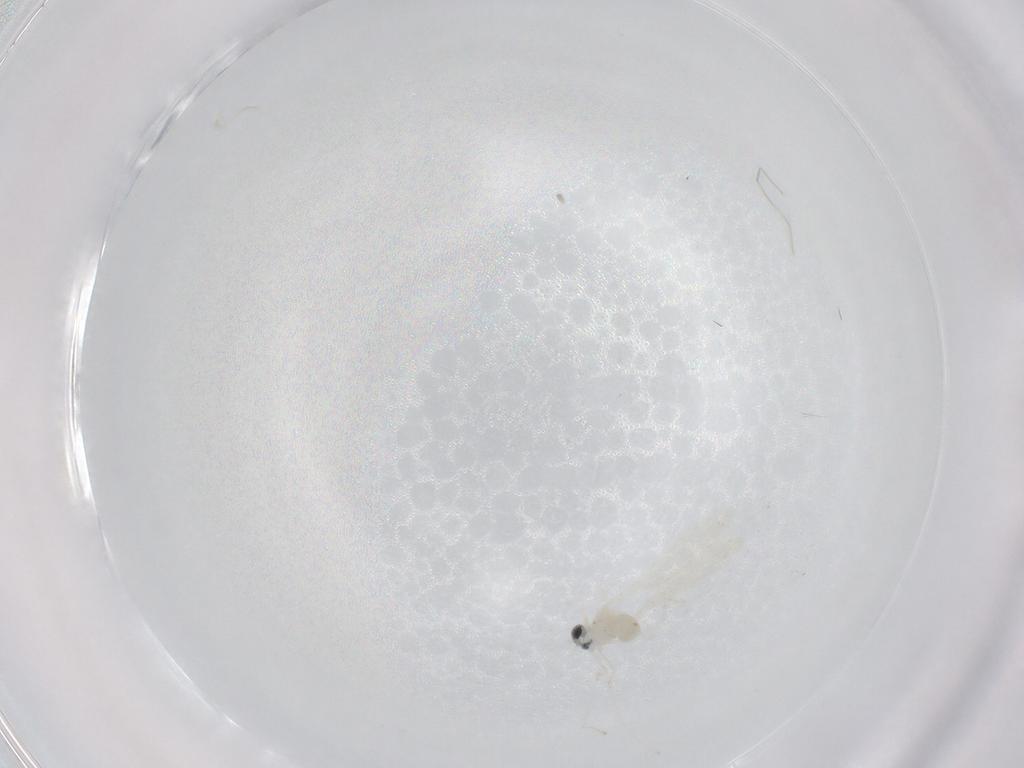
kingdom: Animalia
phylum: Arthropoda
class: Insecta
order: Diptera
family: Cecidomyiidae
